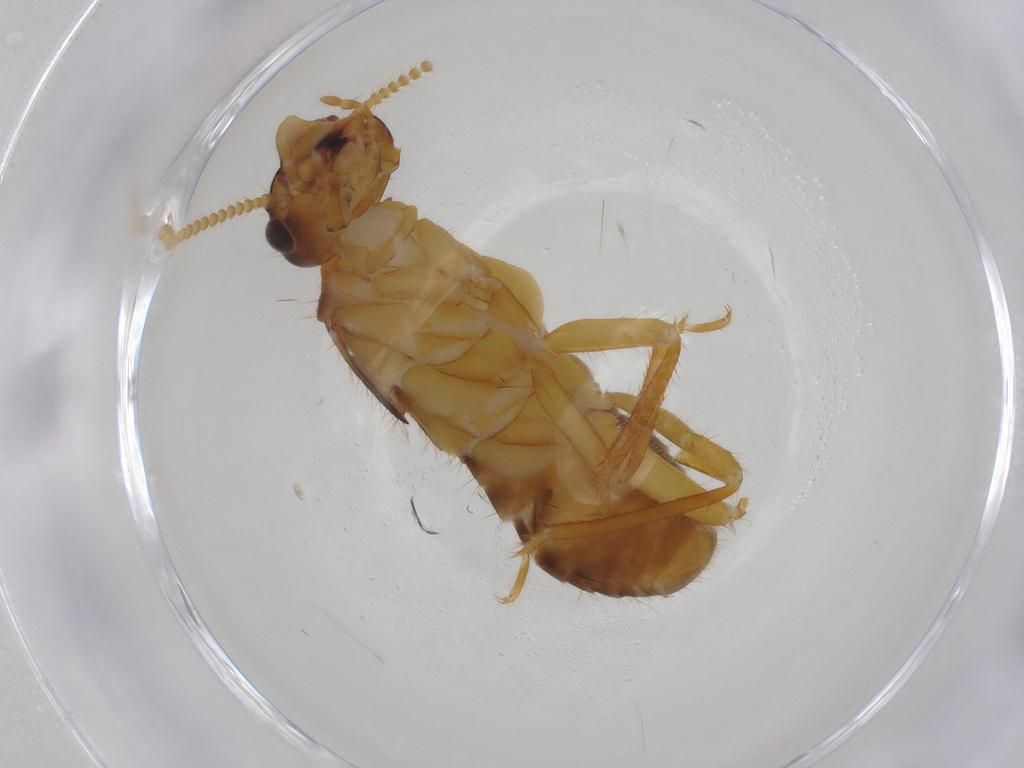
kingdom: Animalia
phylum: Arthropoda
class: Insecta
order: Blattodea
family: Rhinotermitidae
